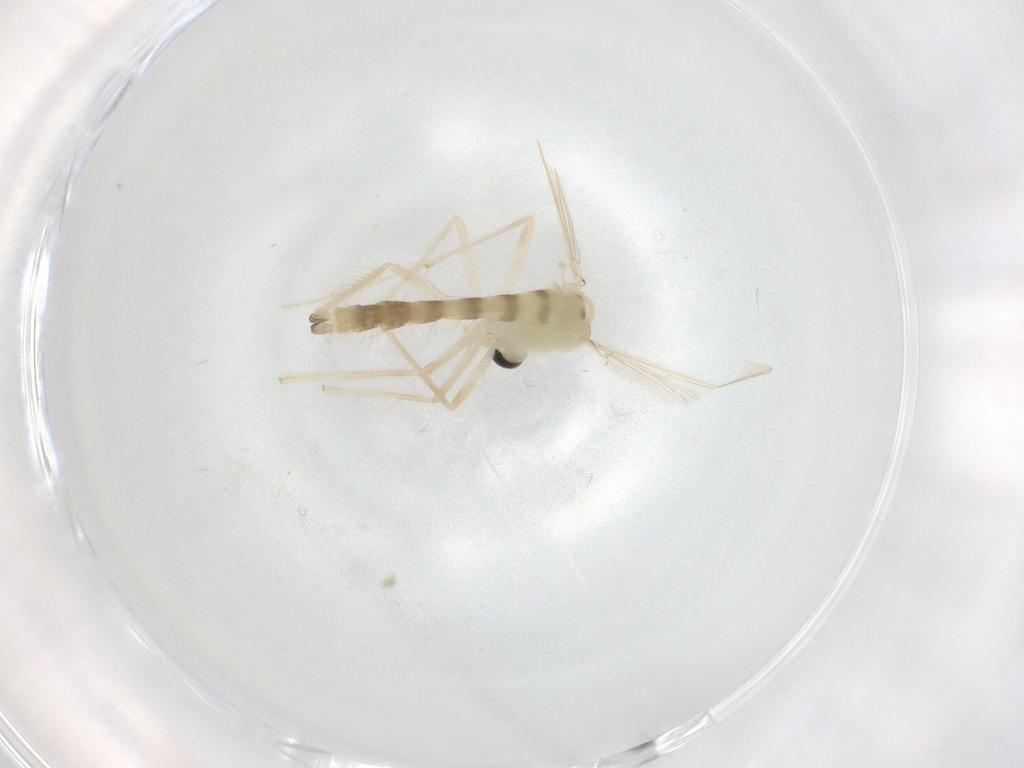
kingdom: Animalia
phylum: Arthropoda
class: Insecta
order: Diptera
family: Chironomidae
